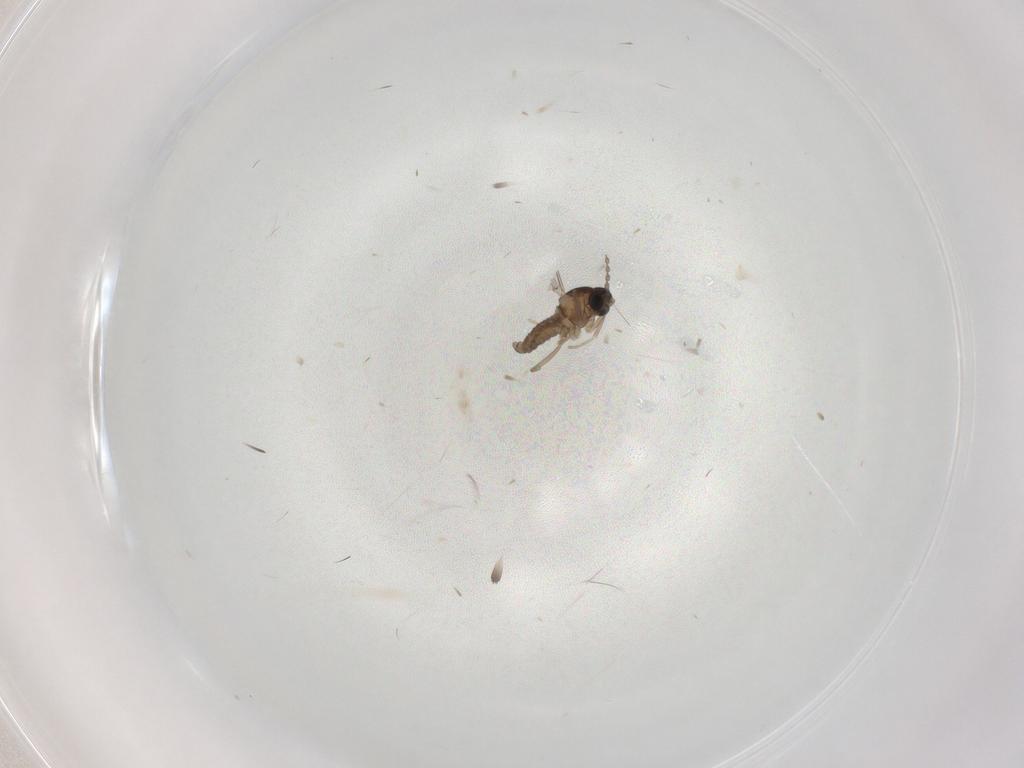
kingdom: Animalia
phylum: Arthropoda
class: Insecta
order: Diptera
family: Cecidomyiidae
